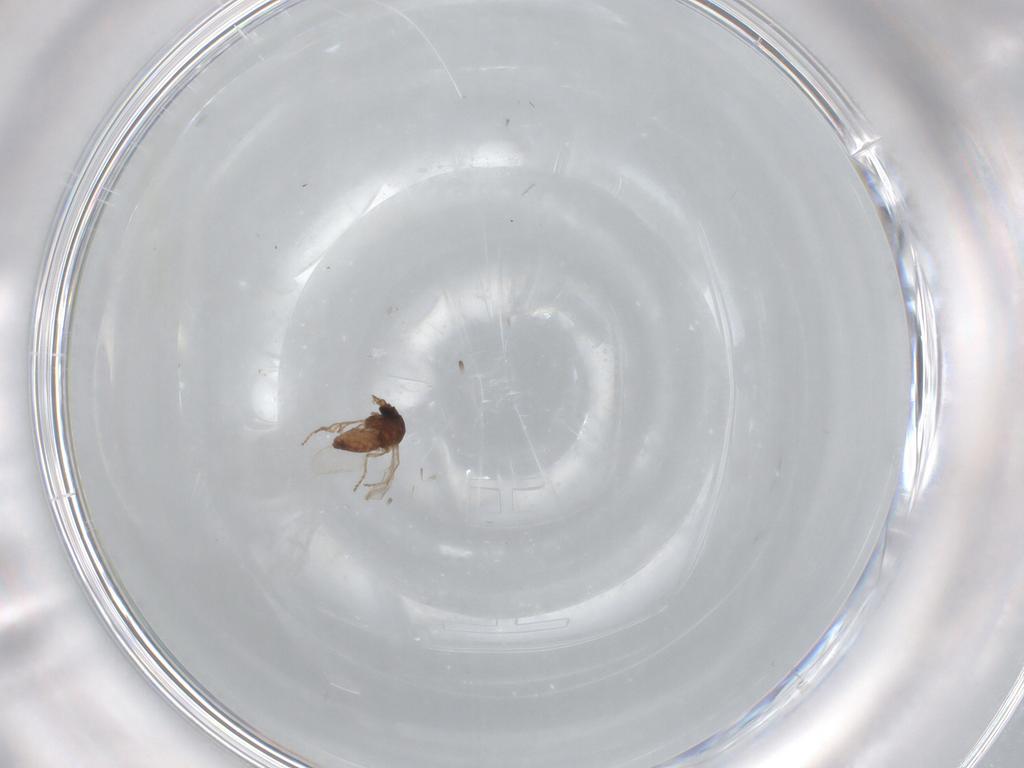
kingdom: Animalia
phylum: Arthropoda
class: Insecta
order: Diptera
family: Ceratopogonidae
